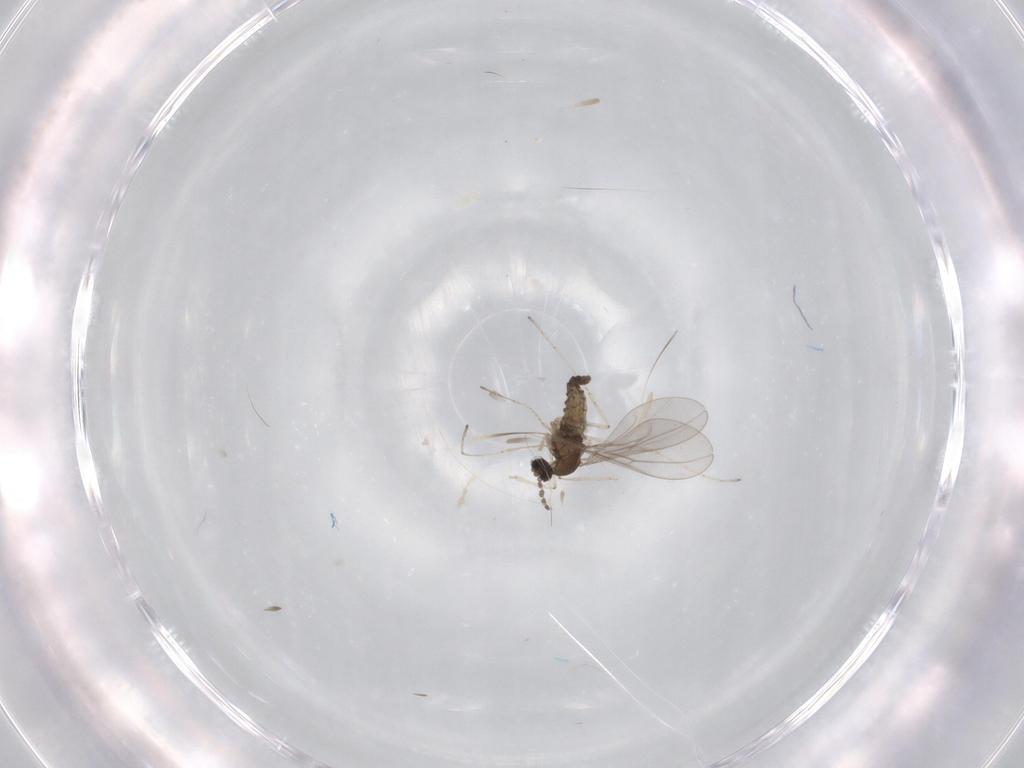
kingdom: Animalia
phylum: Arthropoda
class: Insecta
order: Diptera
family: Cecidomyiidae
